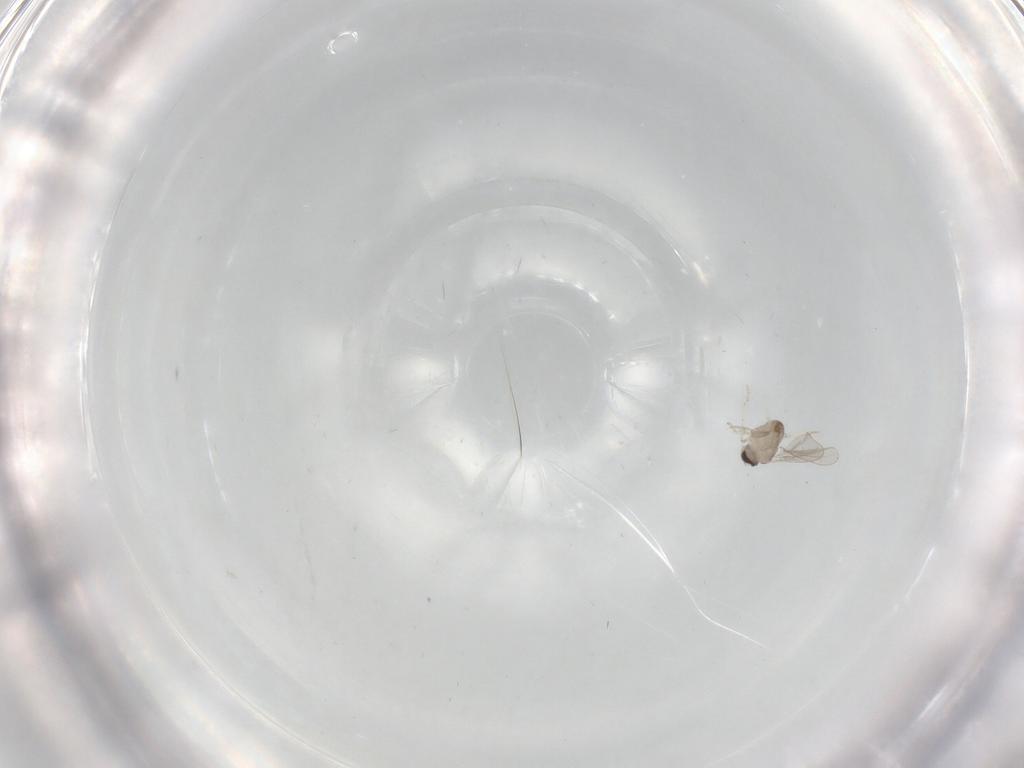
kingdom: Animalia
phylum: Arthropoda
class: Insecta
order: Diptera
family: Cecidomyiidae
